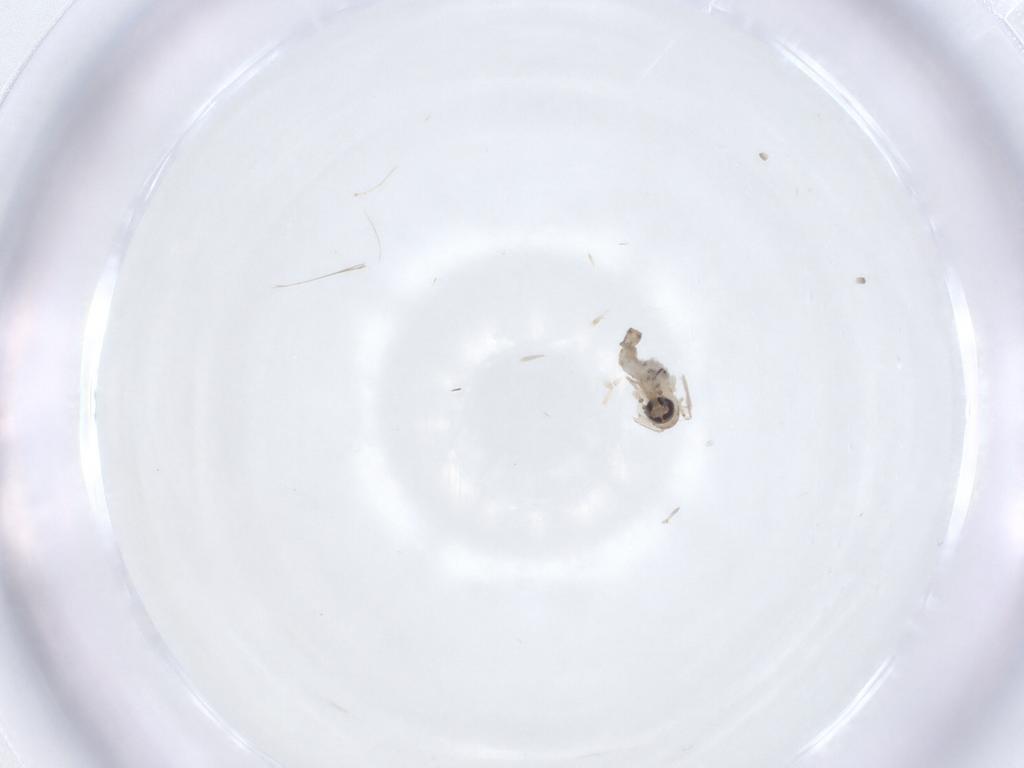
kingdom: Animalia
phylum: Arthropoda
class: Insecta
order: Diptera
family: Psychodidae
